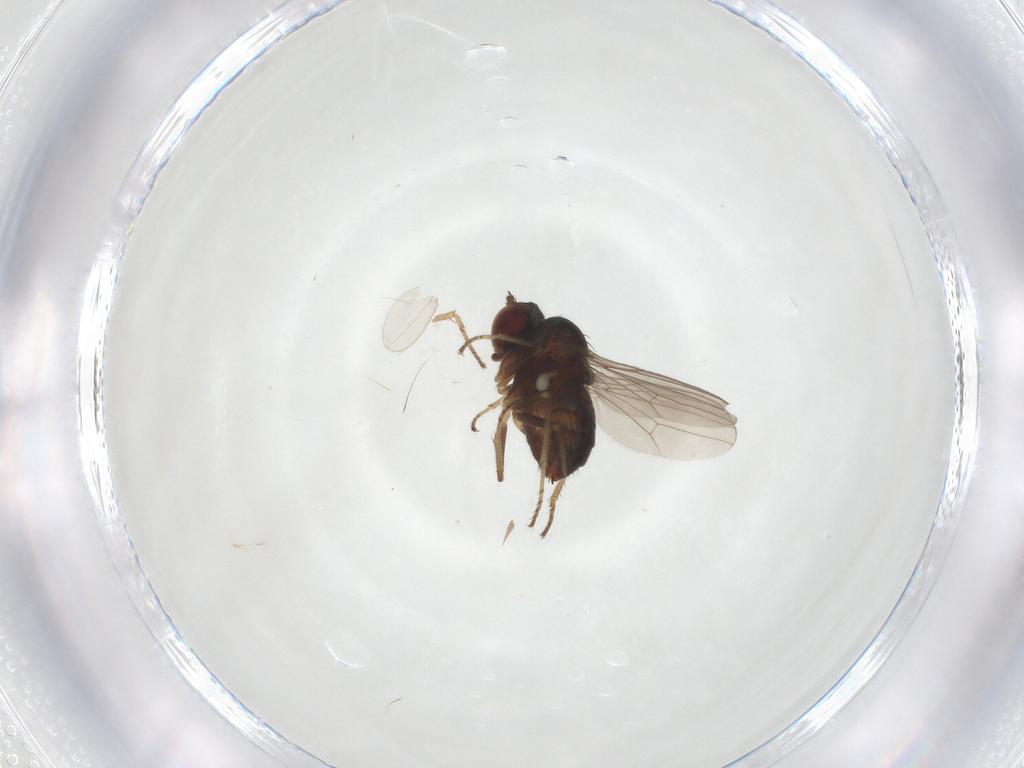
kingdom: Animalia
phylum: Arthropoda
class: Insecta
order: Diptera
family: Dolichopodidae
